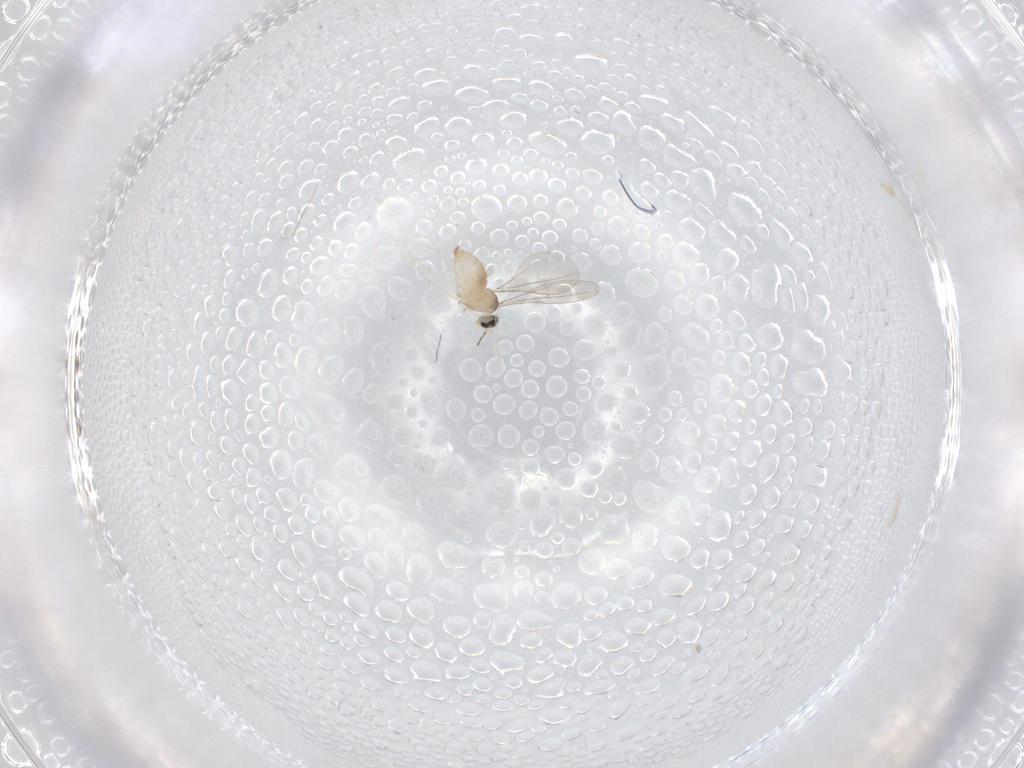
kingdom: Animalia
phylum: Arthropoda
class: Insecta
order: Diptera
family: Cecidomyiidae
